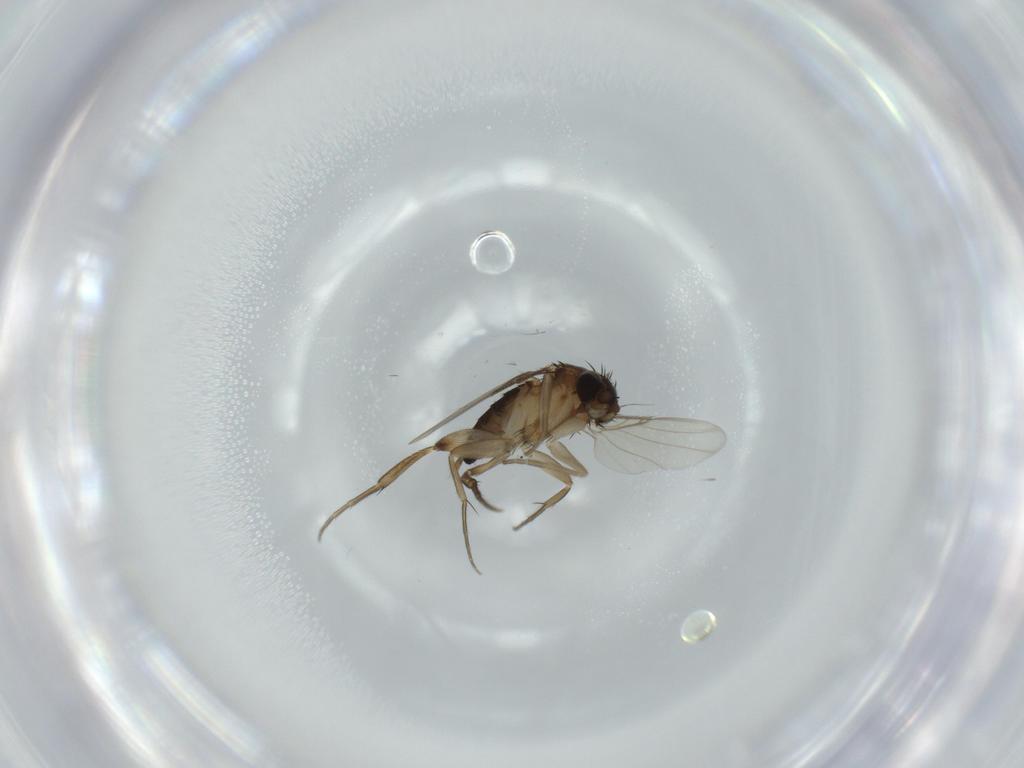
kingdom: Animalia
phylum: Arthropoda
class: Insecta
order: Diptera
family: Phoridae
